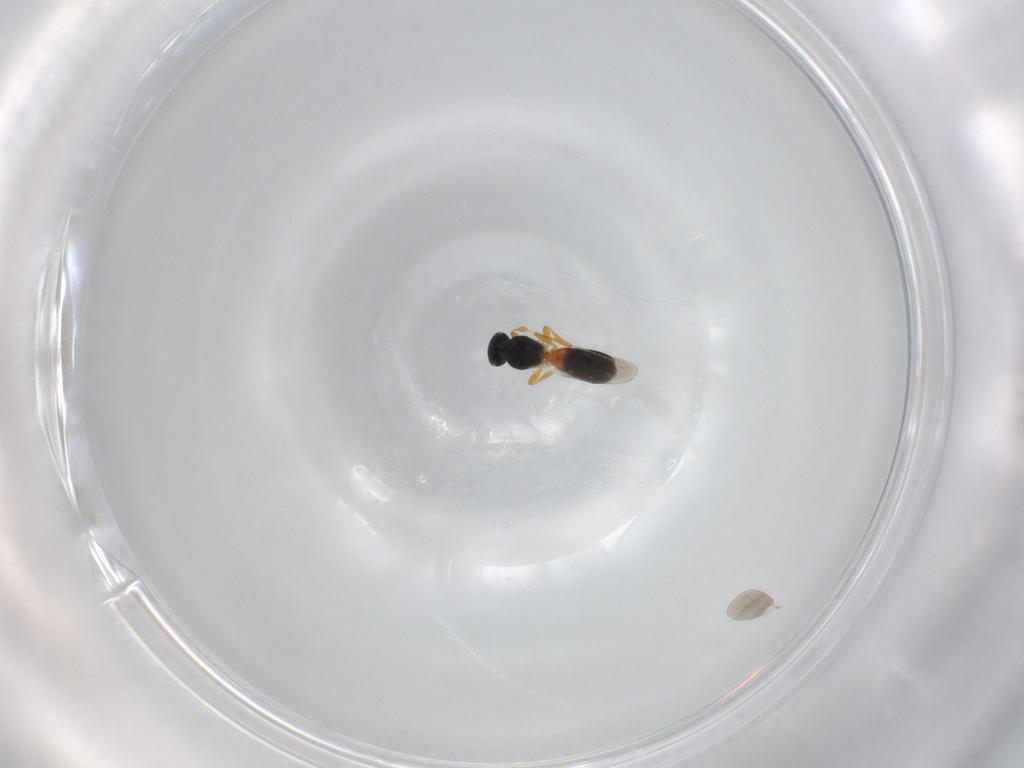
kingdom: Animalia
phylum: Arthropoda
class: Insecta
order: Hymenoptera
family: Platygastridae
